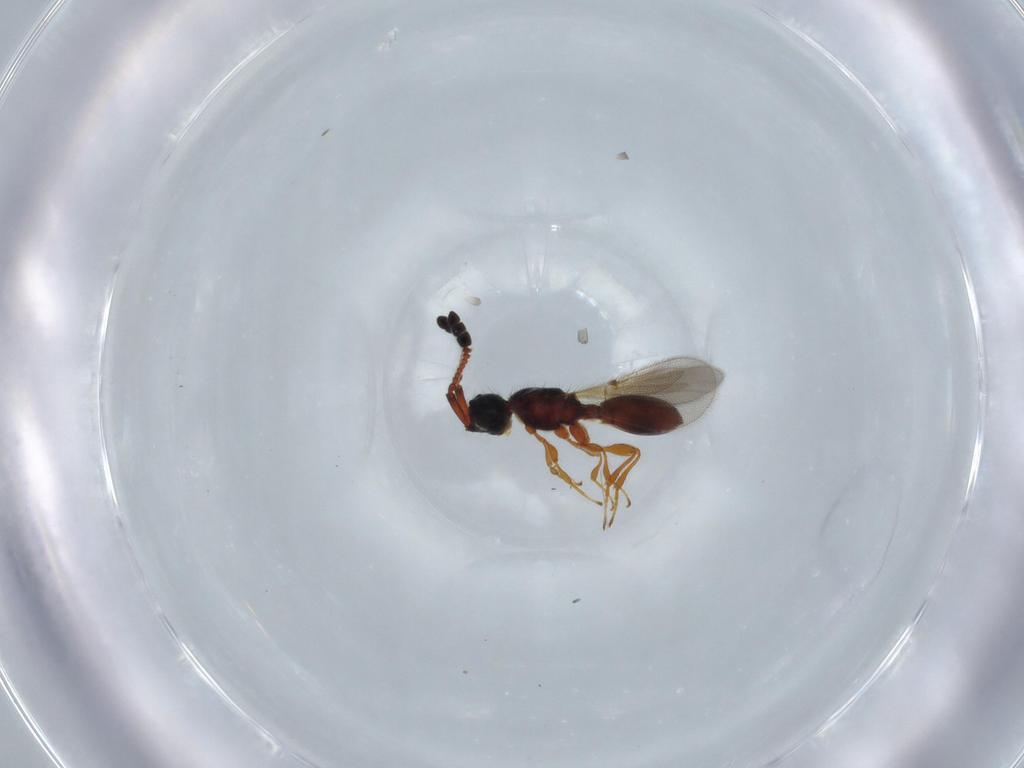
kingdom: Animalia
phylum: Arthropoda
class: Insecta
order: Hymenoptera
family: Diapriidae
